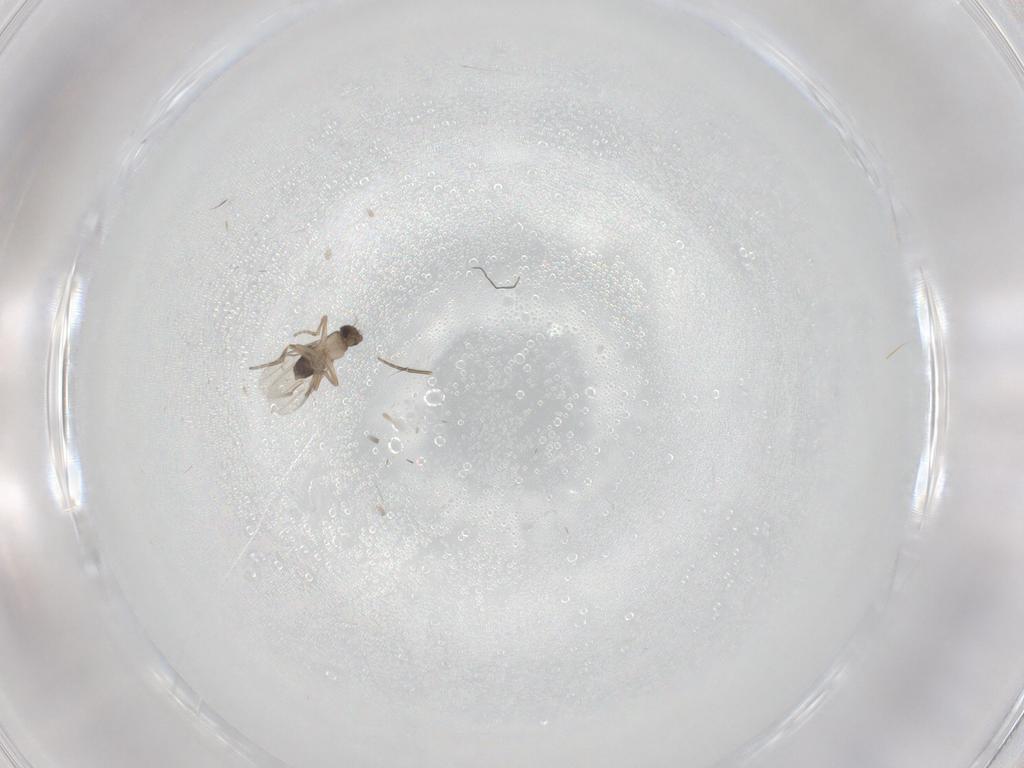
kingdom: Animalia
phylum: Arthropoda
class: Insecta
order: Diptera
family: Phoridae
